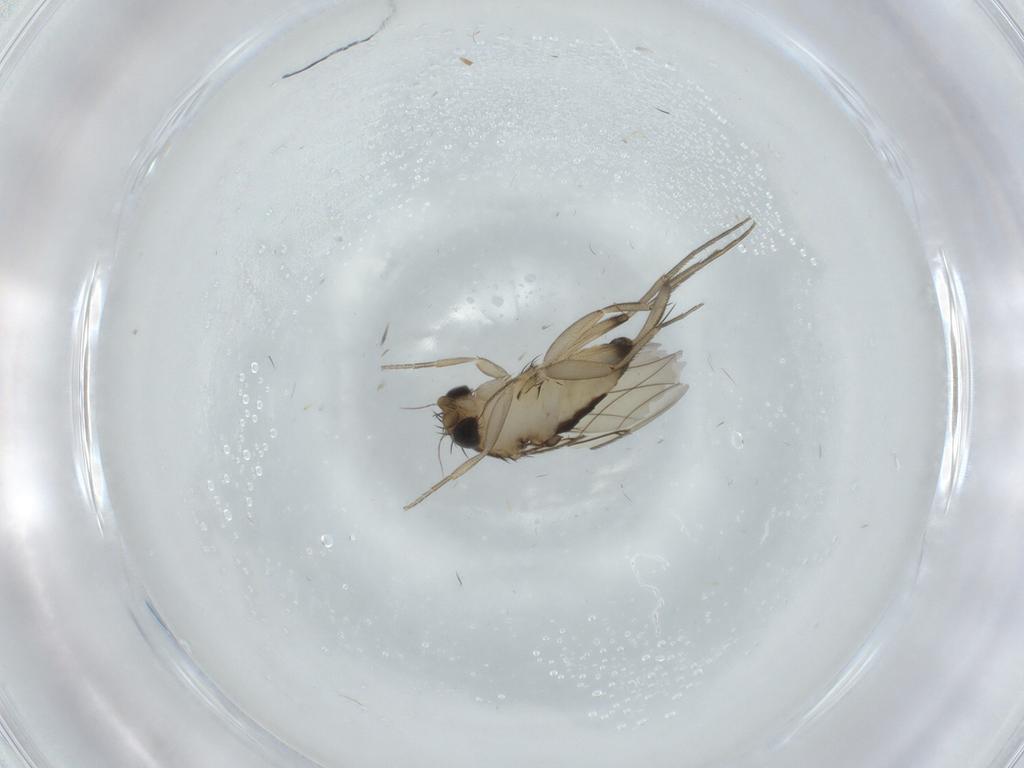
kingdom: Animalia
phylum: Arthropoda
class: Insecta
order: Diptera
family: Phoridae
